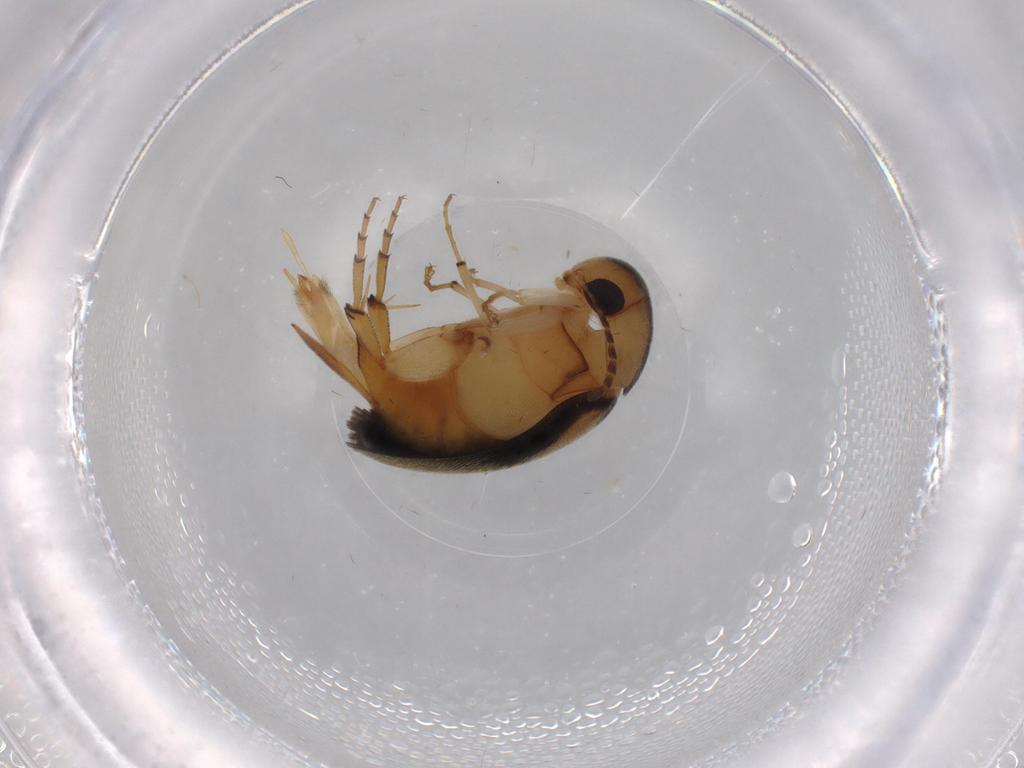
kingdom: Animalia
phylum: Arthropoda
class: Insecta
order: Coleoptera
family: Mordellidae
